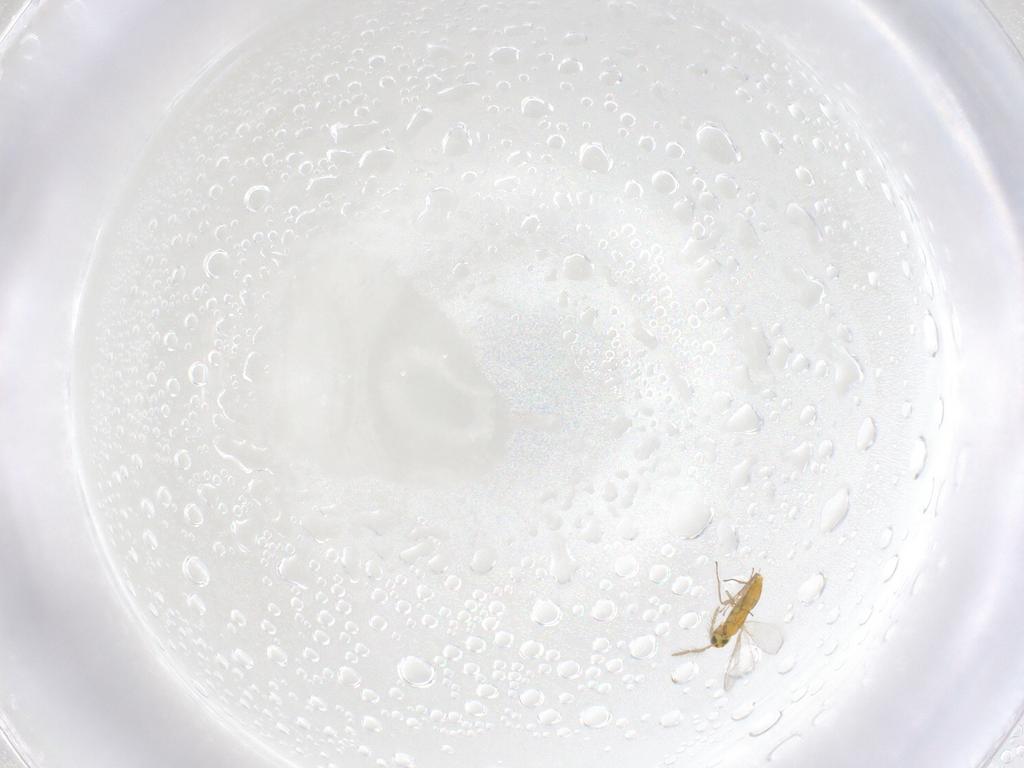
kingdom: Animalia
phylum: Arthropoda
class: Insecta
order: Hymenoptera
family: Aphelinidae
